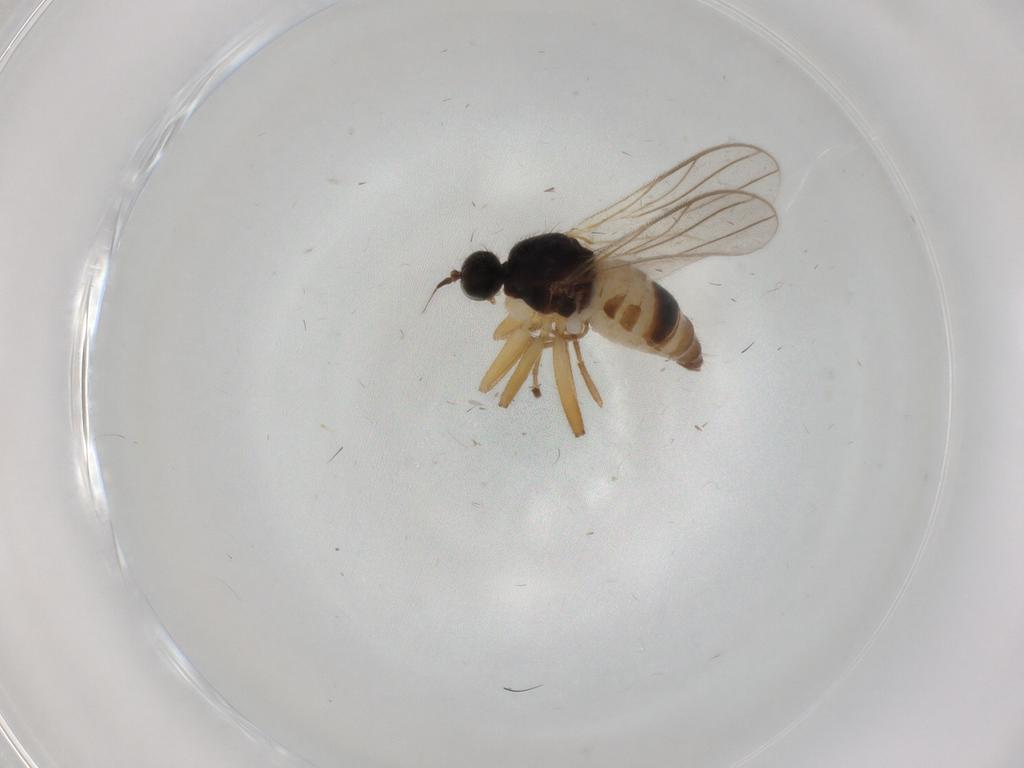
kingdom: Animalia
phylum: Arthropoda
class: Insecta
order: Diptera
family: Hybotidae
